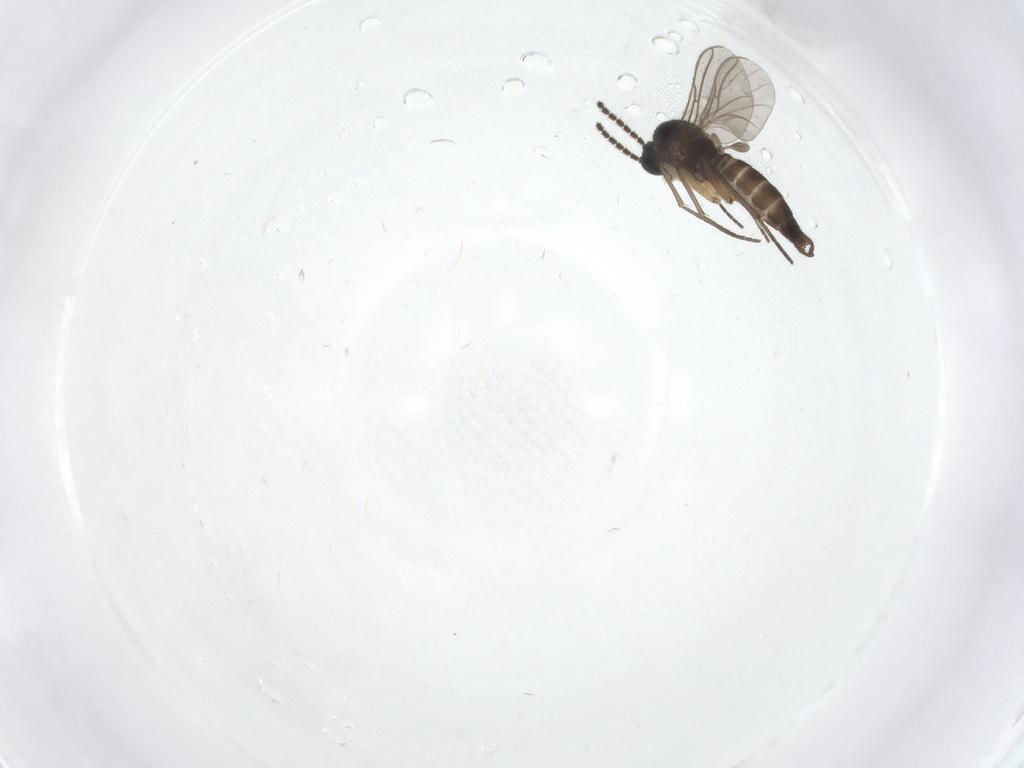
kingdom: Animalia
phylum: Arthropoda
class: Insecta
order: Diptera
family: Sciaridae
